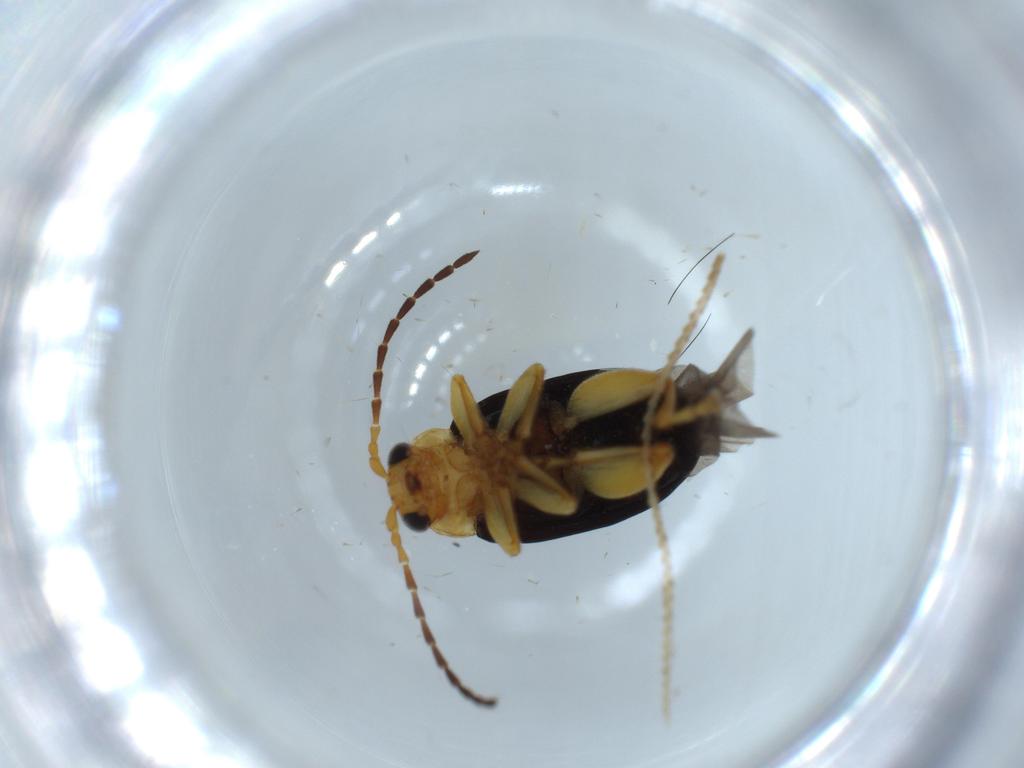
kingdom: Animalia
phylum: Arthropoda
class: Insecta
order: Coleoptera
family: Chrysomelidae
